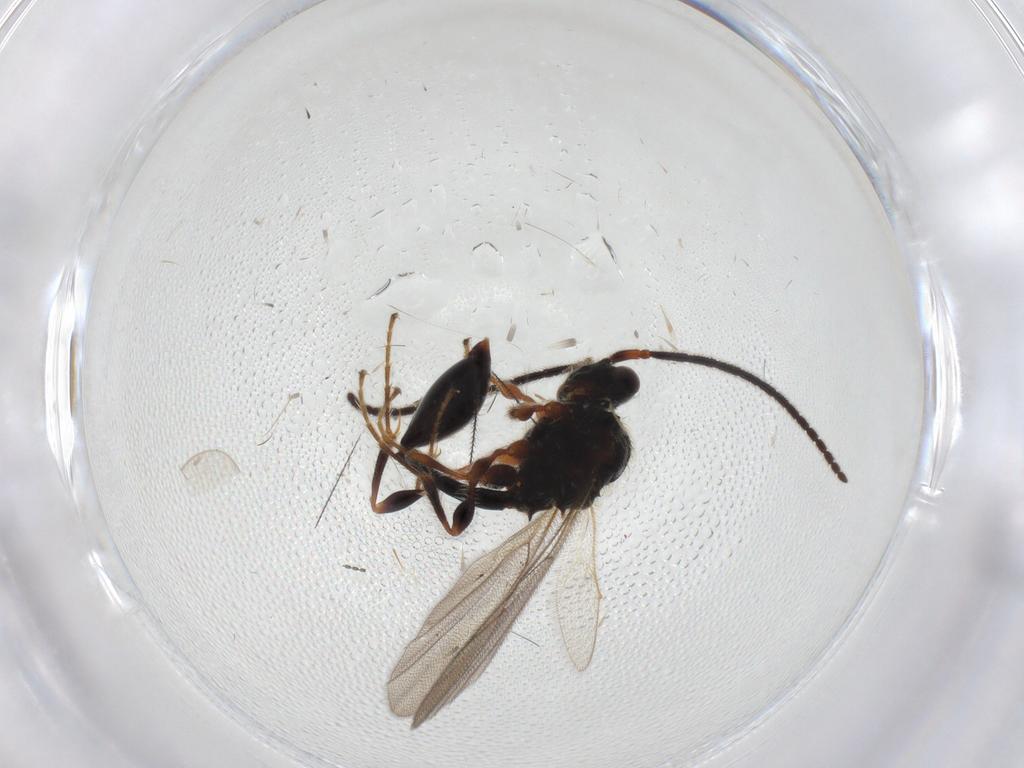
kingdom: Animalia
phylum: Arthropoda
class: Insecta
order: Hymenoptera
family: Diapriidae
